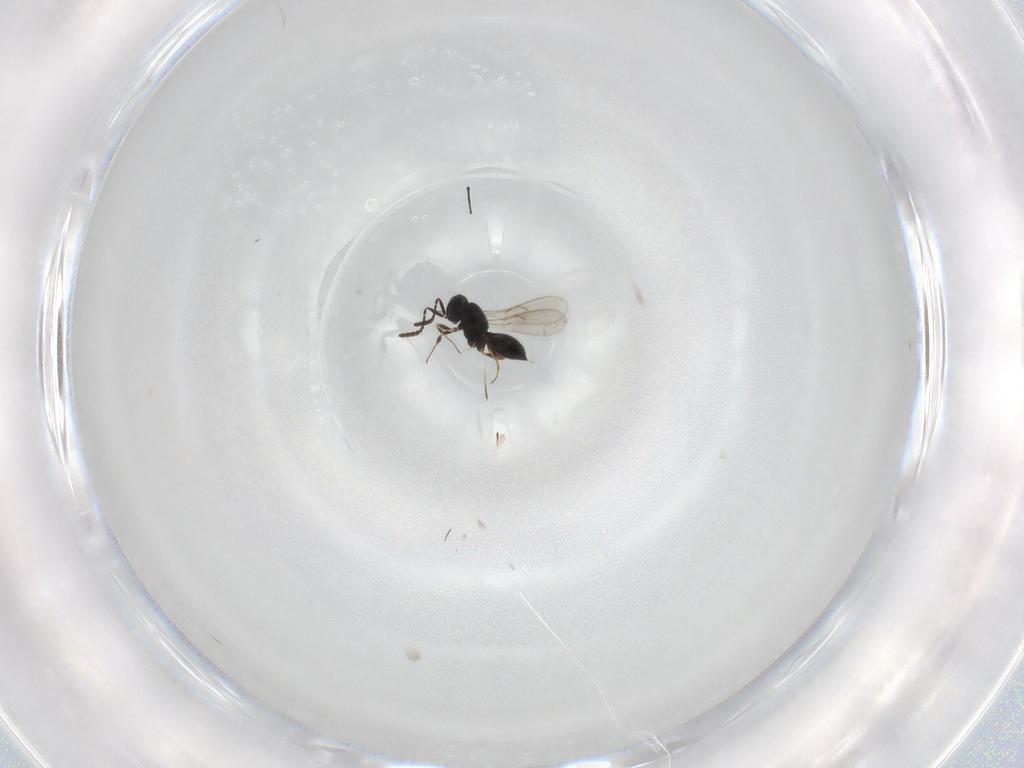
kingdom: Animalia
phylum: Arthropoda
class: Insecta
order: Hymenoptera
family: Scelionidae
